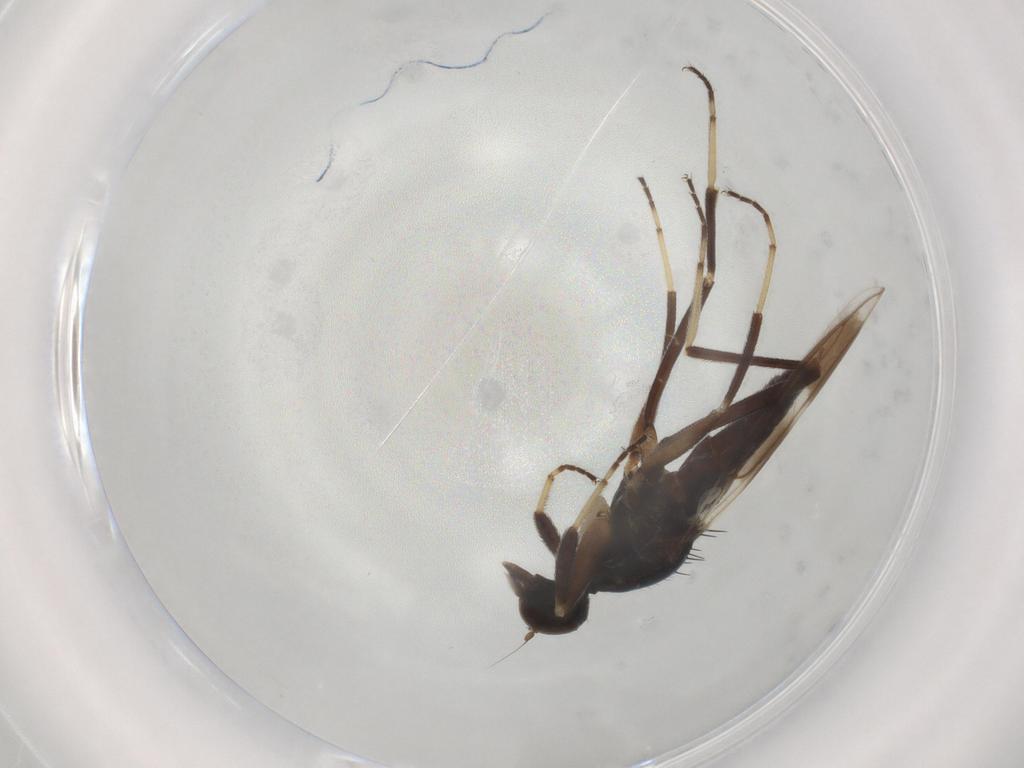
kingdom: Animalia
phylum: Arthropoda
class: Insecta
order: Diptera
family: Hybotidae
